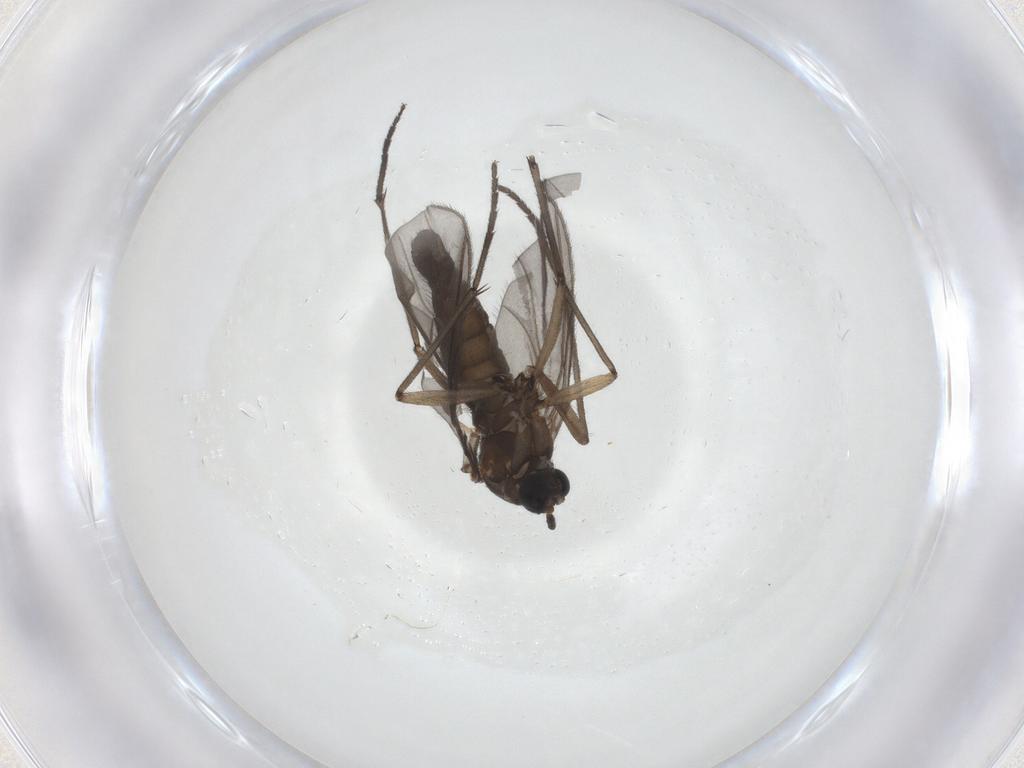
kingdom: Animalia
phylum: Arthropoda
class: Insecta
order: Diptera
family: Sciaridae
